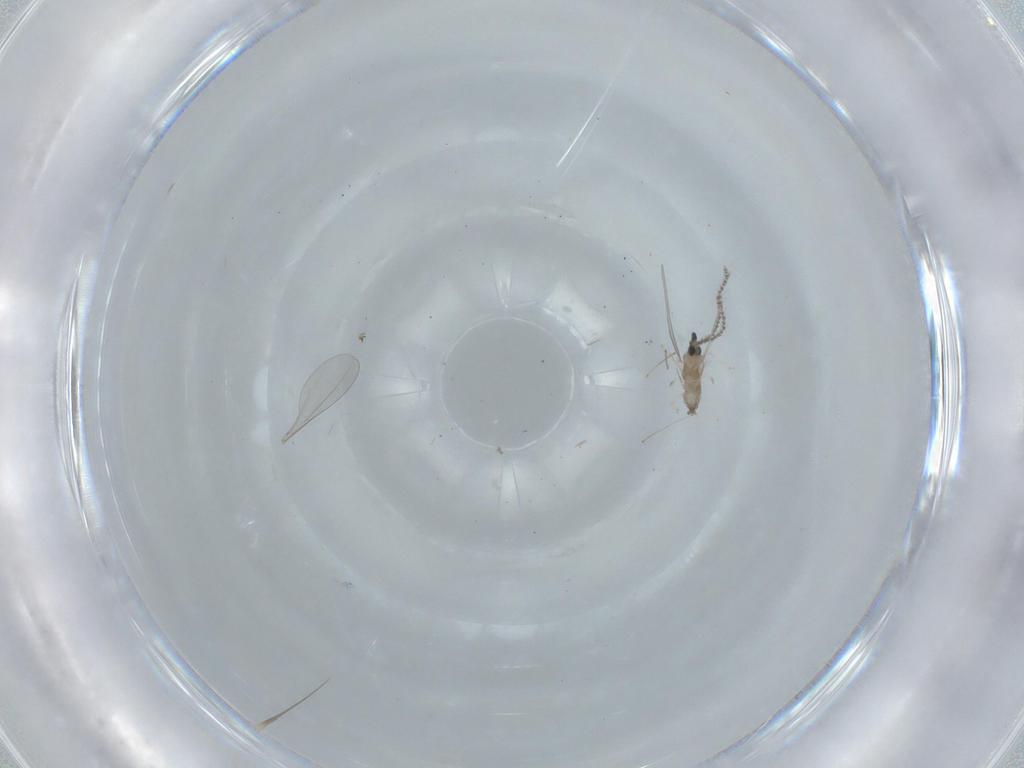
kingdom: Animalia
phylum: Arthropoda
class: Insecta
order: Diptera
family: Cecidomyiidae
